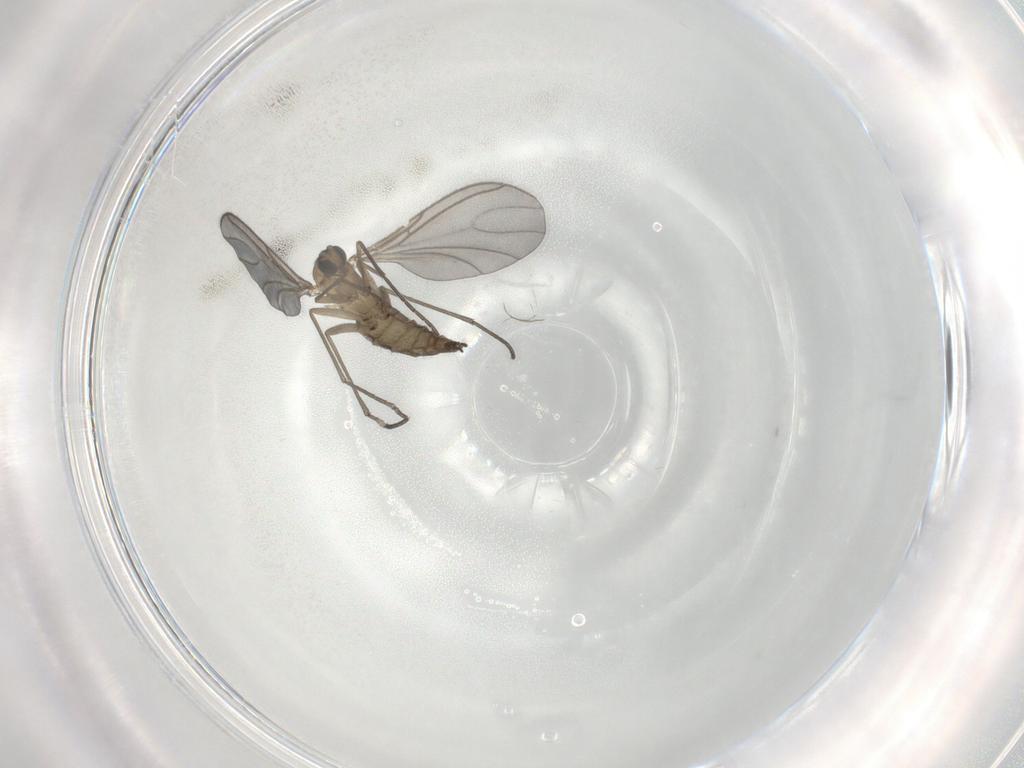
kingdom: Animalia
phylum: Arthropoda
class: Insecta
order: Diptera
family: Sciaridae
